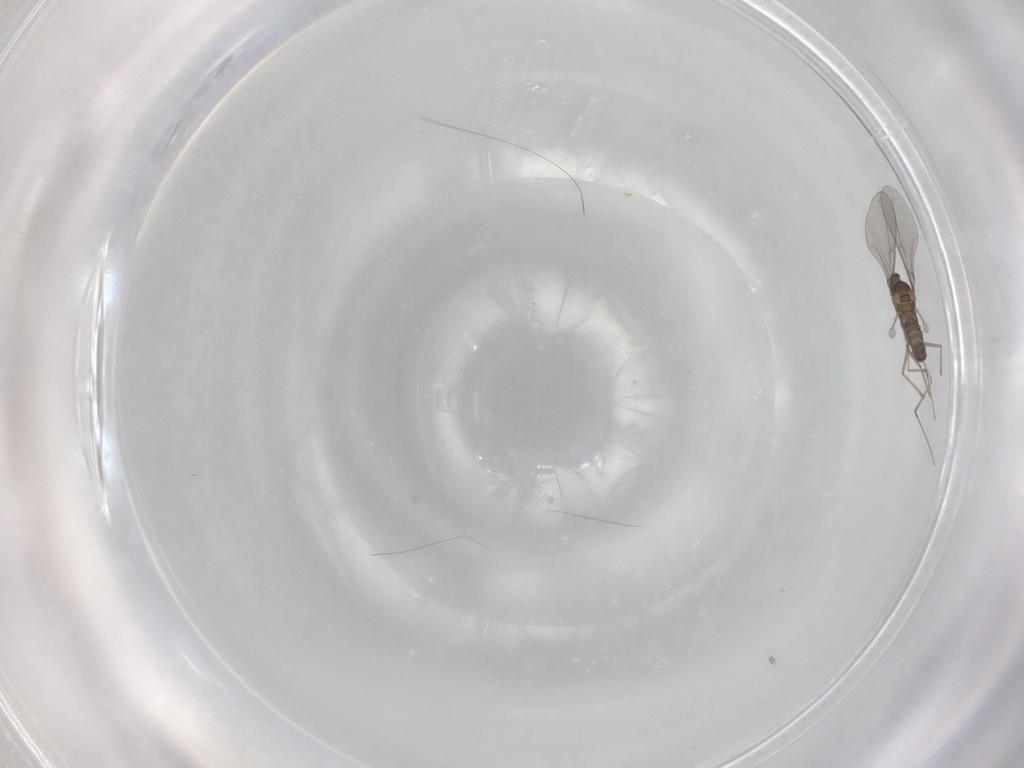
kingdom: Animalia
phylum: Arthropoda
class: Insecta
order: Diptera
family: Cecidomyiidae
